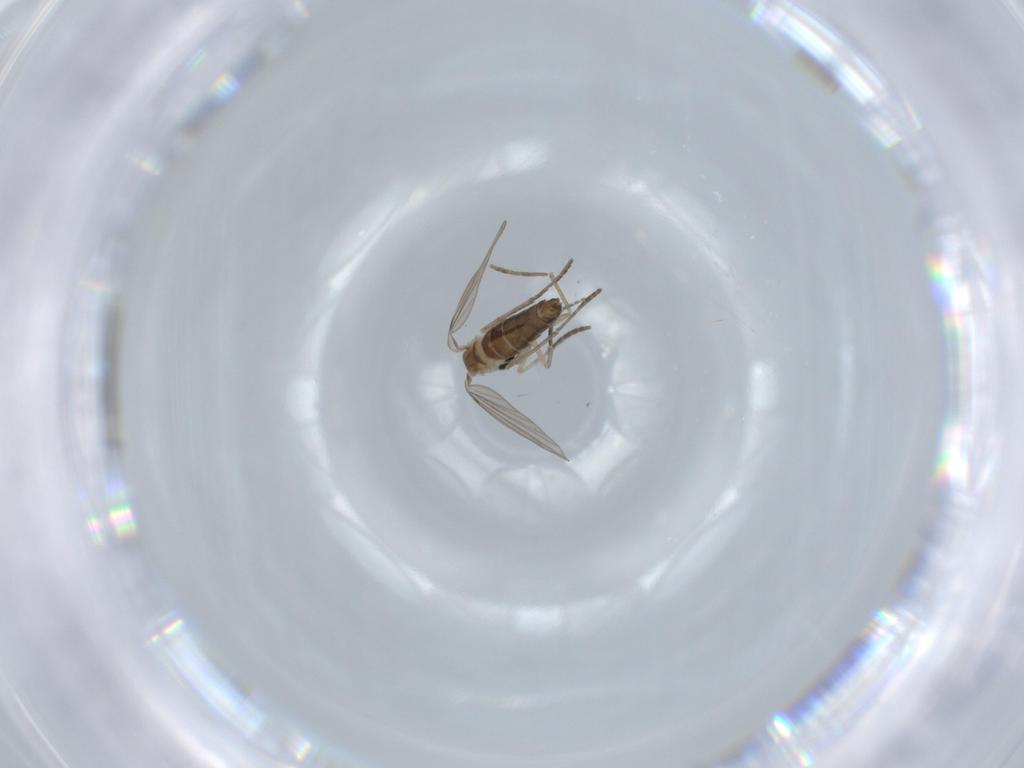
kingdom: Animalia
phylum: Arthropoda
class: Insecta
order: Diptera
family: Psychodidae
